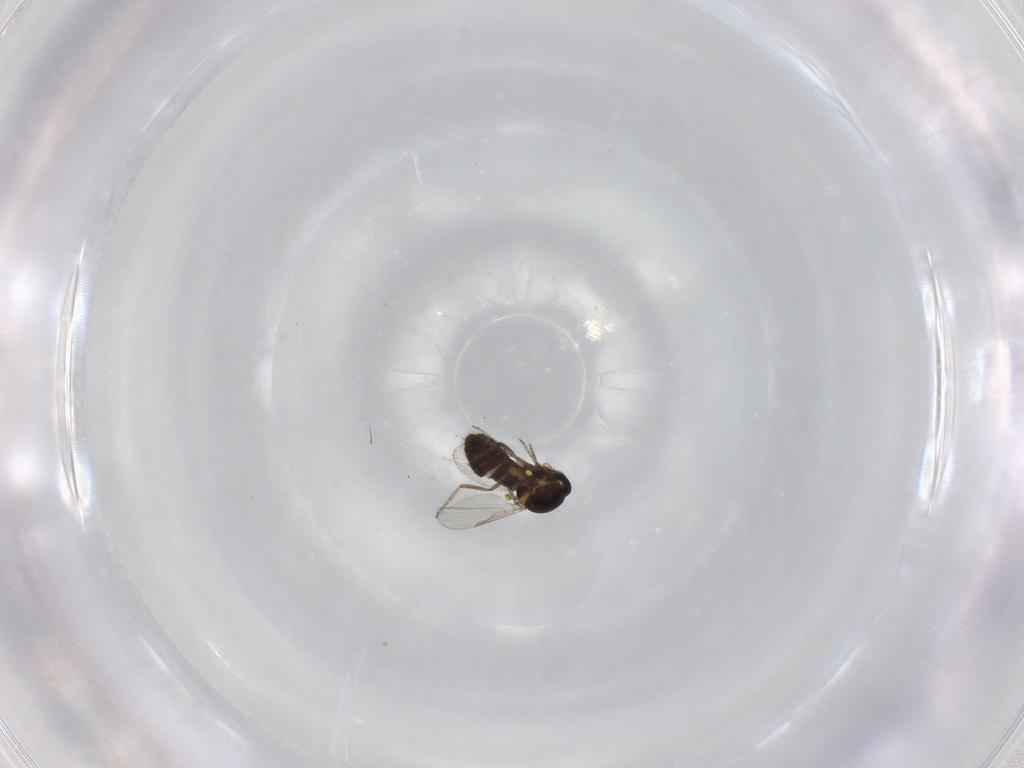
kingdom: Animalia
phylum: Arthropoda
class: Insecta
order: Diptera
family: Ceratopogonidae
